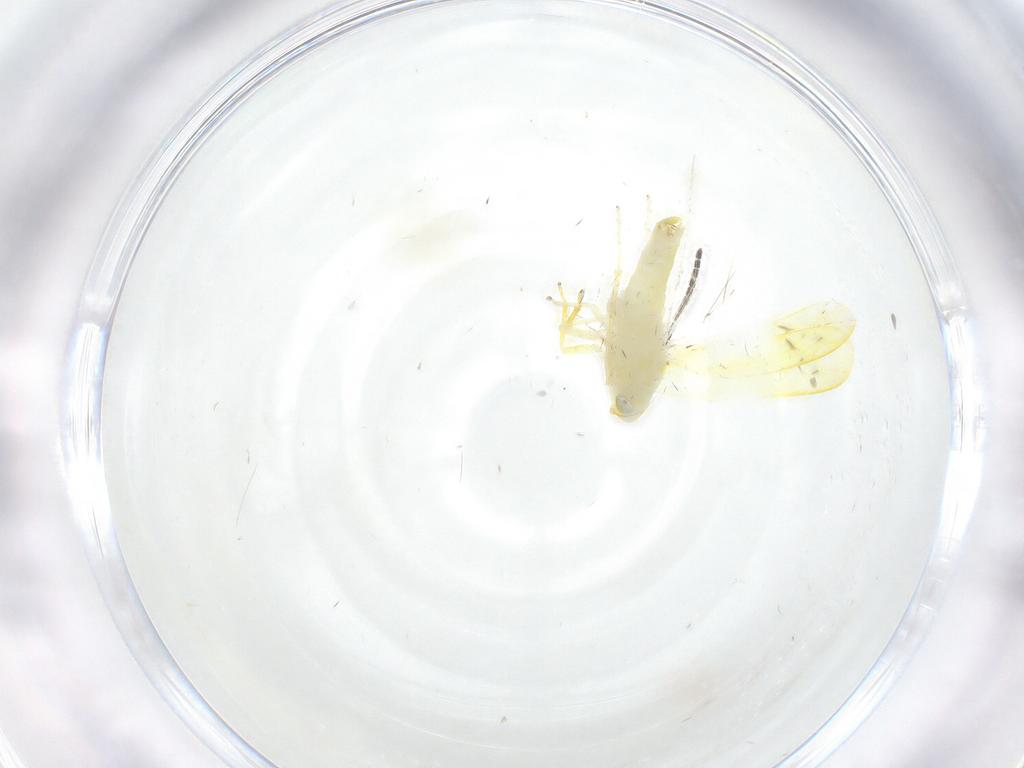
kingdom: Animalia
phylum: Arthropoda
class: Insecta
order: Hemiptera
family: Cicadellidae
